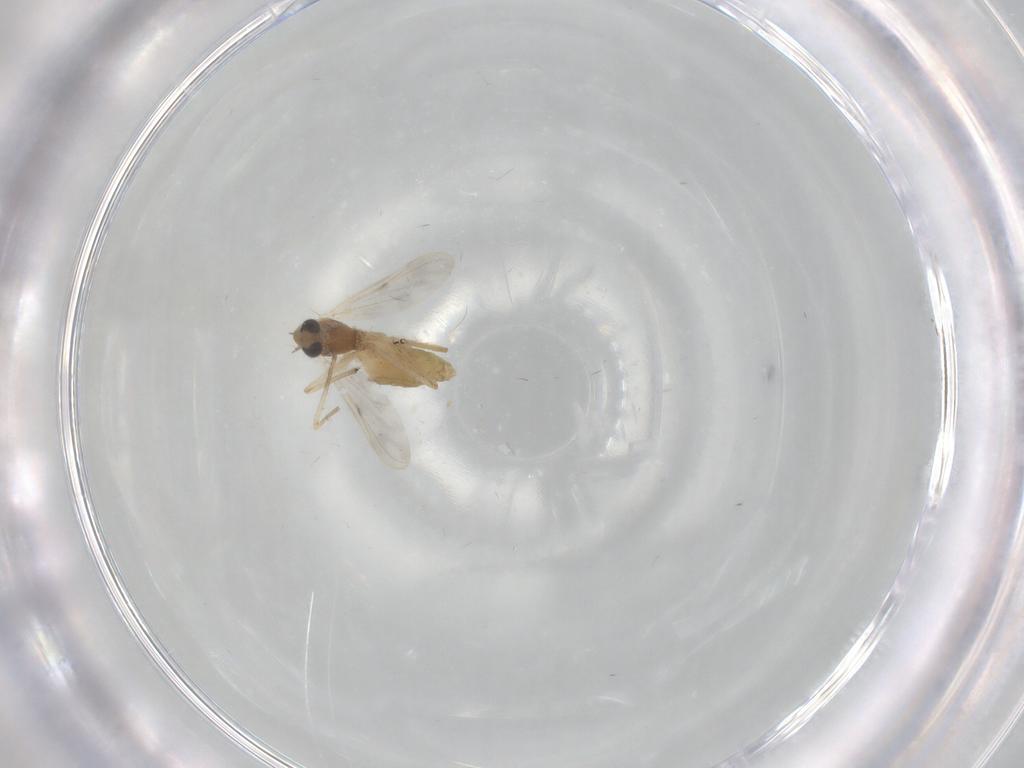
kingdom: Animalia
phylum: Arthropoda
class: Insecta
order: Diptera
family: Chironomidae
